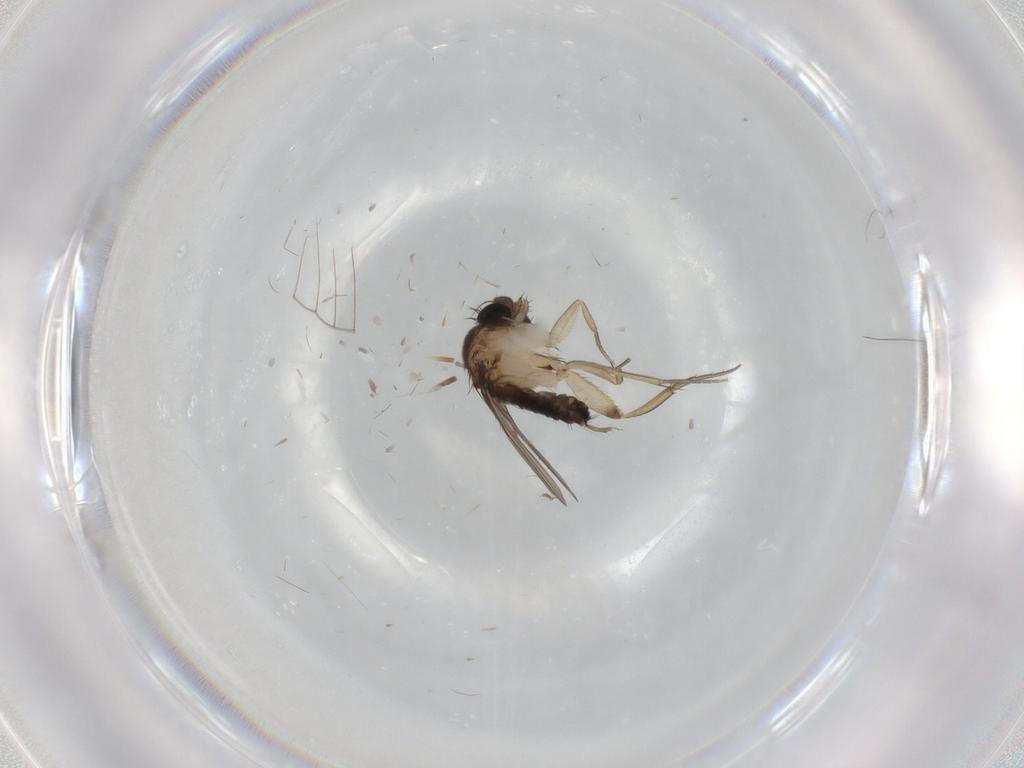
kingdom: Animalia
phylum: Arthropoda
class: Insecta
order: Diptera
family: Phoridae
